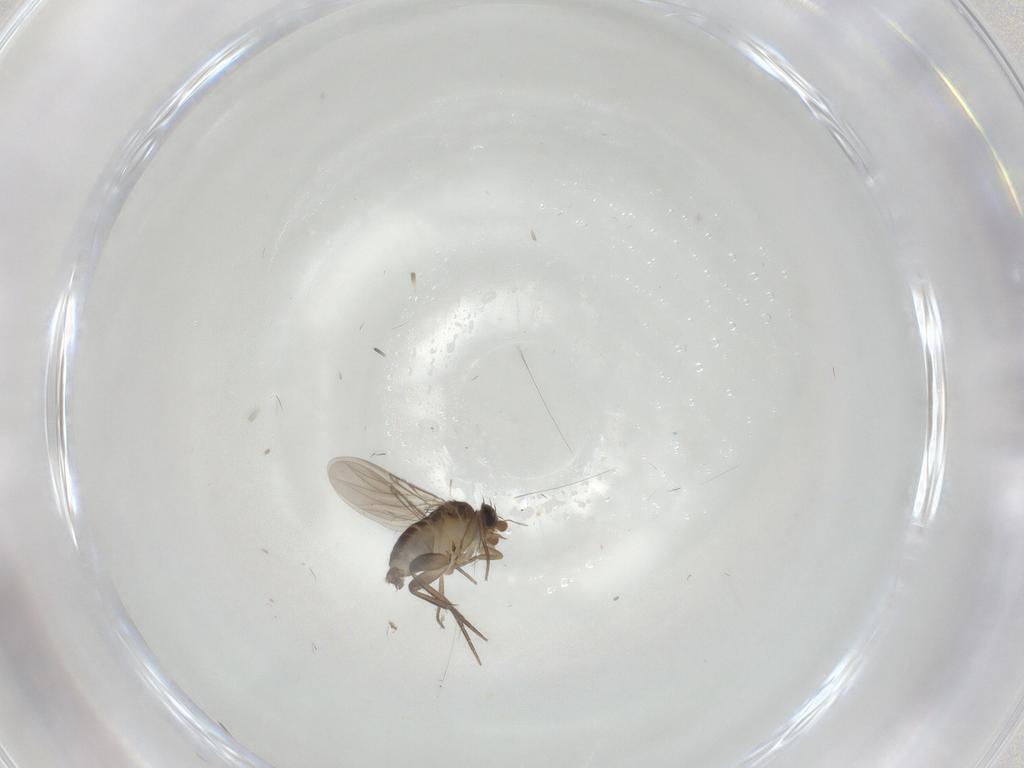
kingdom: Animalia
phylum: Arthropoda
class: Insecta
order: Diptera
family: Phoridae
